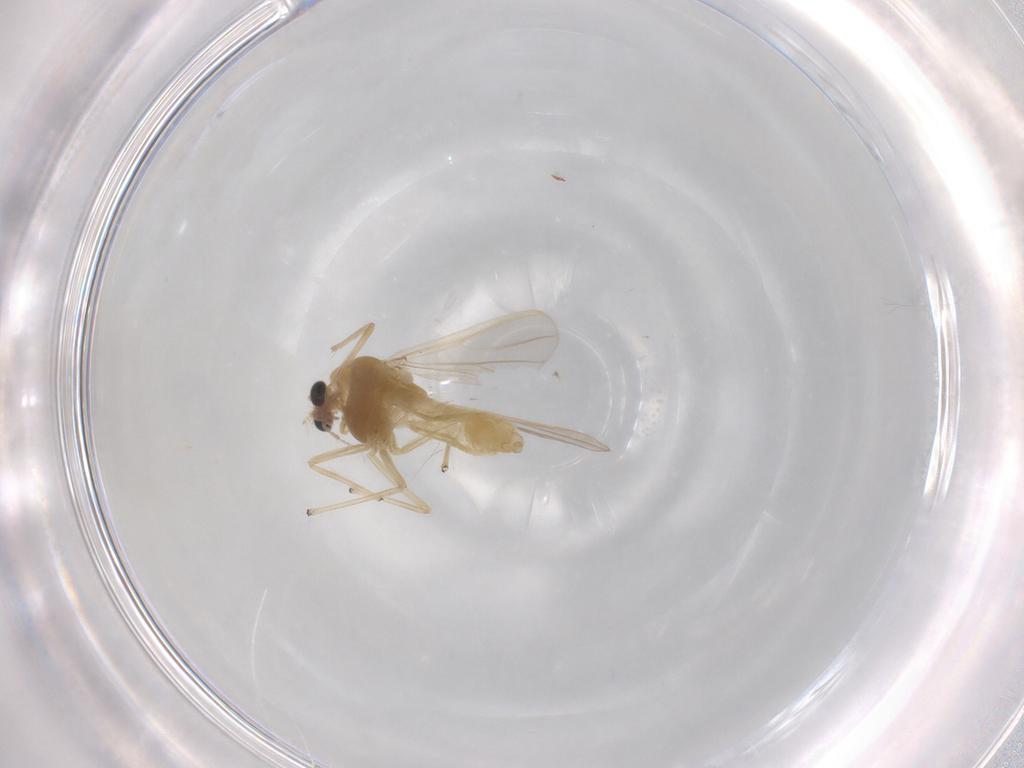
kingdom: Animalia
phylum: Arthropoda
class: Insecta
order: Diptera
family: Chironomidae
